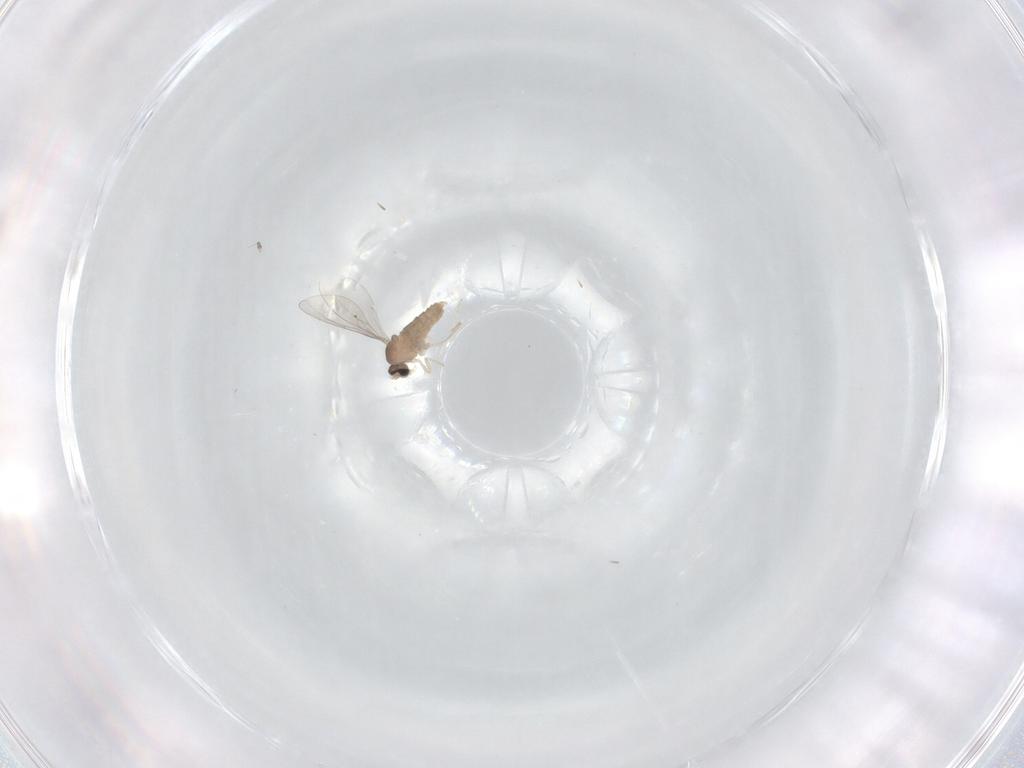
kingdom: Animalia
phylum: Arthropoda
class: Insecta
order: Diptera
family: Cecidomyiidae
